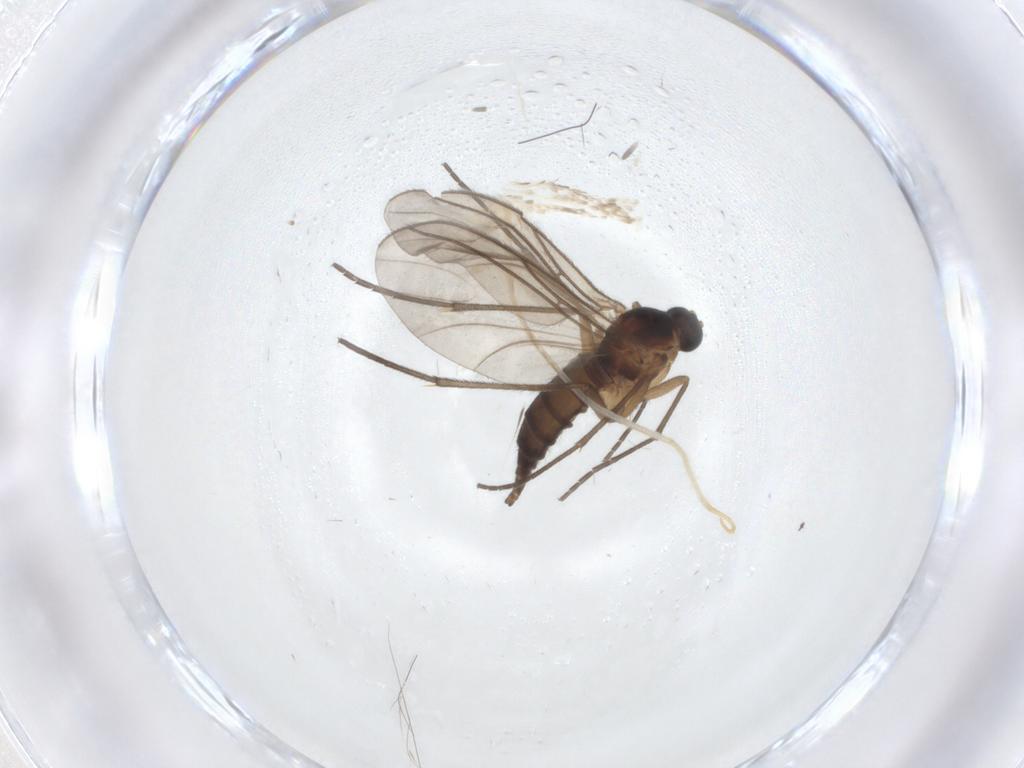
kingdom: Animalia
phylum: Arthropoda
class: Insecta
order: Diptera
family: Sciaridae
